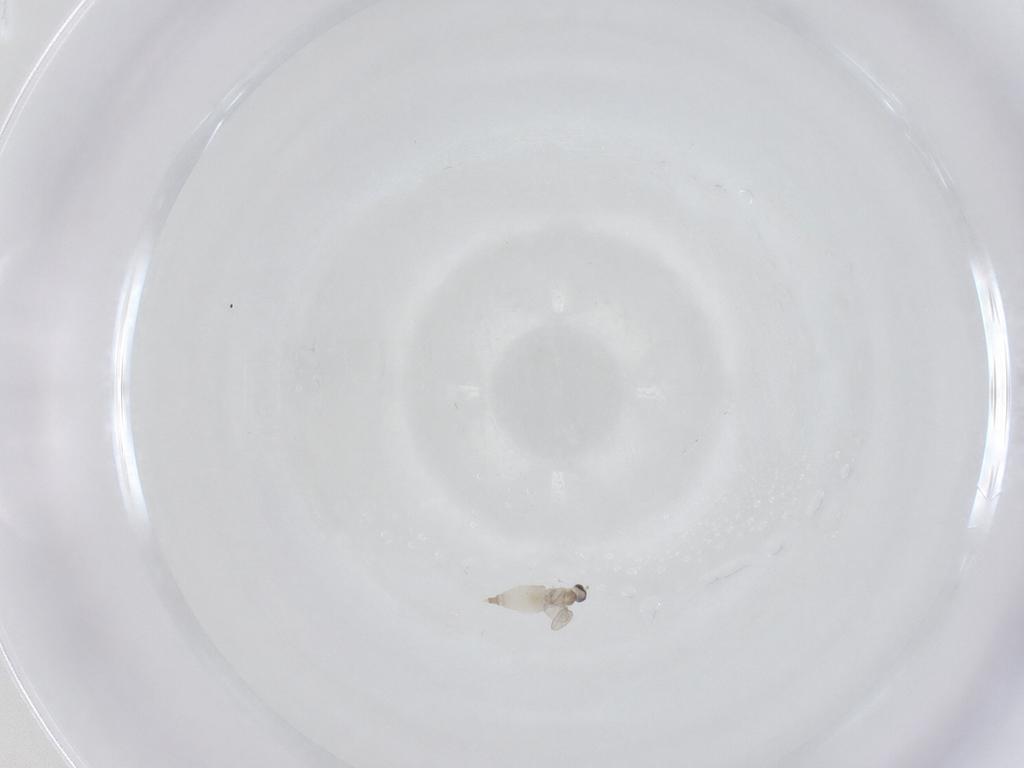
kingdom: Animalia
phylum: Arthropoda
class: Insecta
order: Diptera
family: Cecidomyiidae
